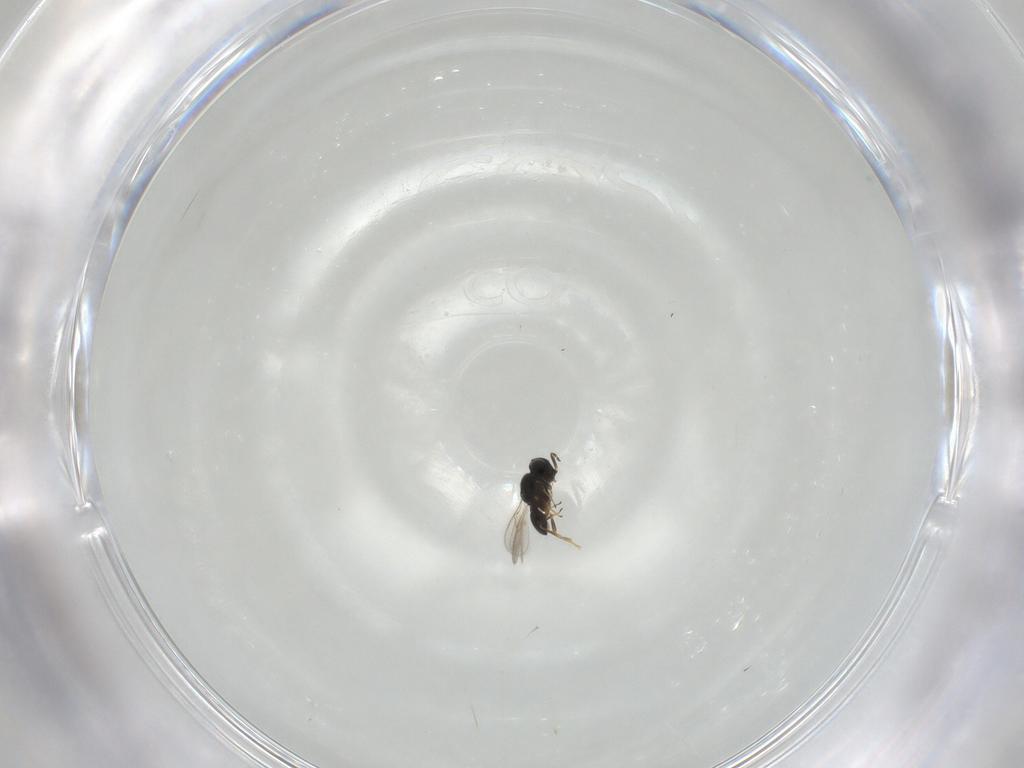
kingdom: Animalia
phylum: Arthropoda
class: Insecta
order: Hymenoptera
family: Scelionidae
